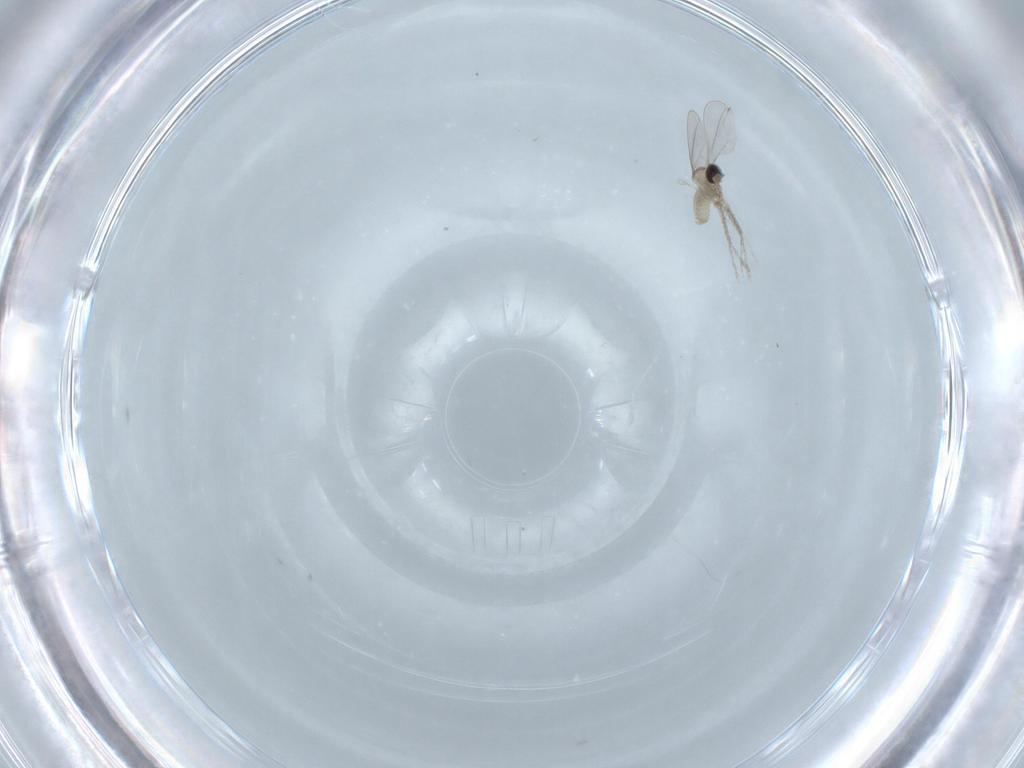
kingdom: Animalia
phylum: Arthropoda
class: Insecta
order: Diptera
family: Cecidomyiidae
